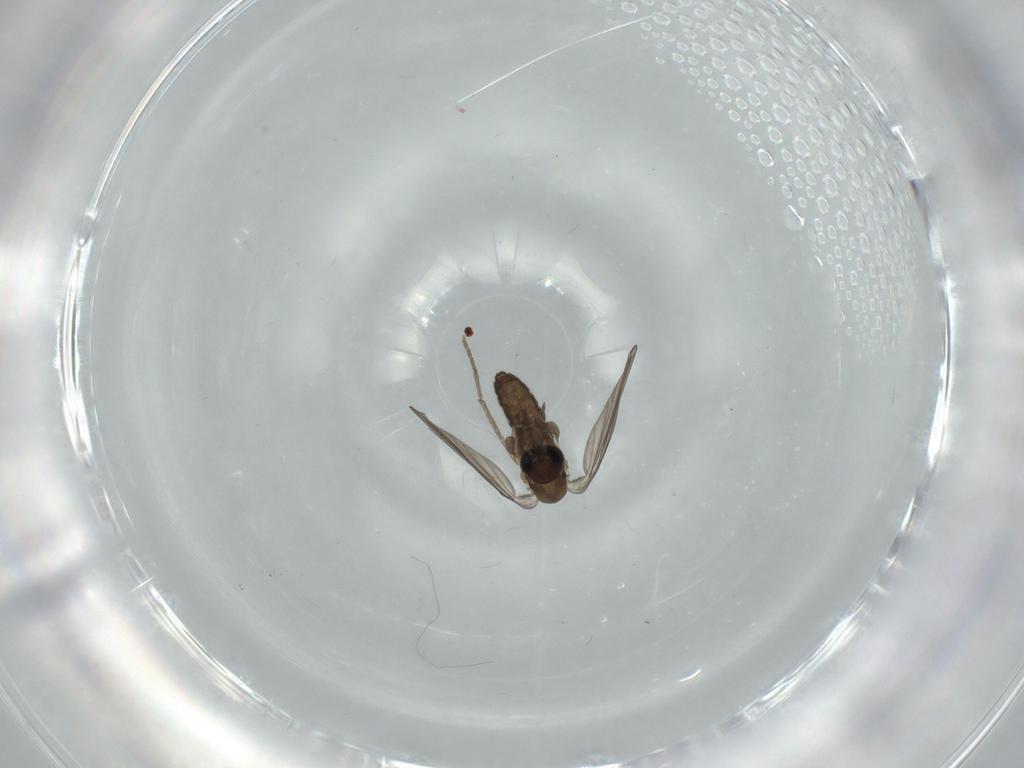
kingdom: Animalia
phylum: Arthropoda
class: Insecta
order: Diptera
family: Psychodidae
